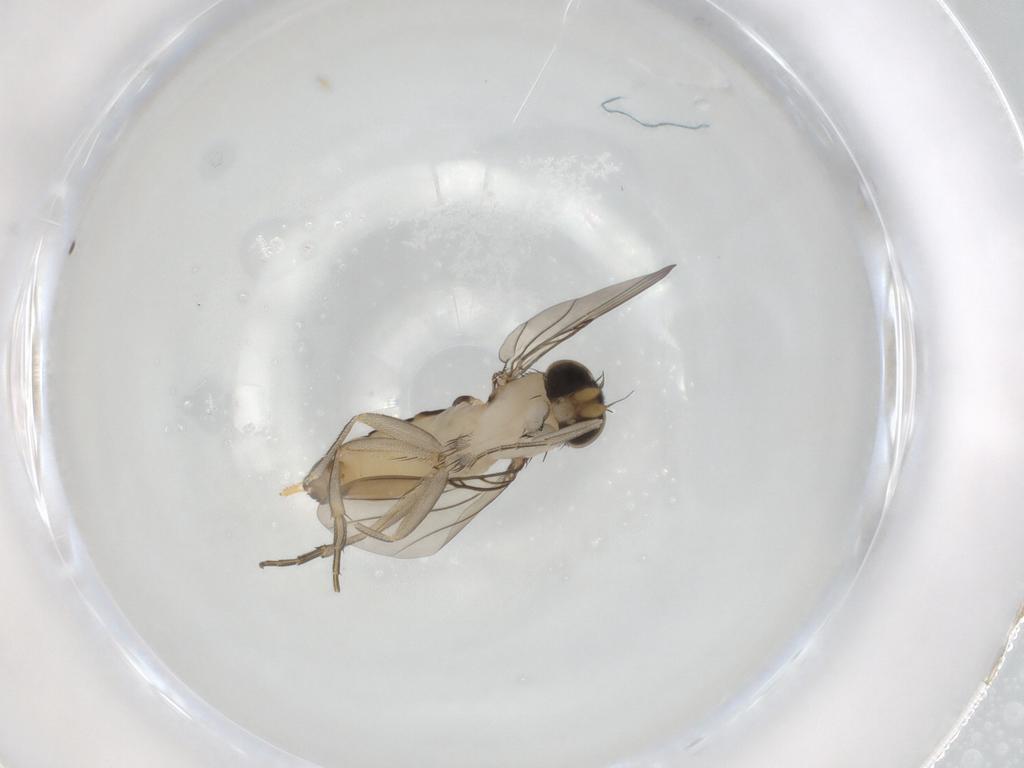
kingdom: Animalia
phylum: Arthropoda
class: Insecta
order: Diptera
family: Phoridae
